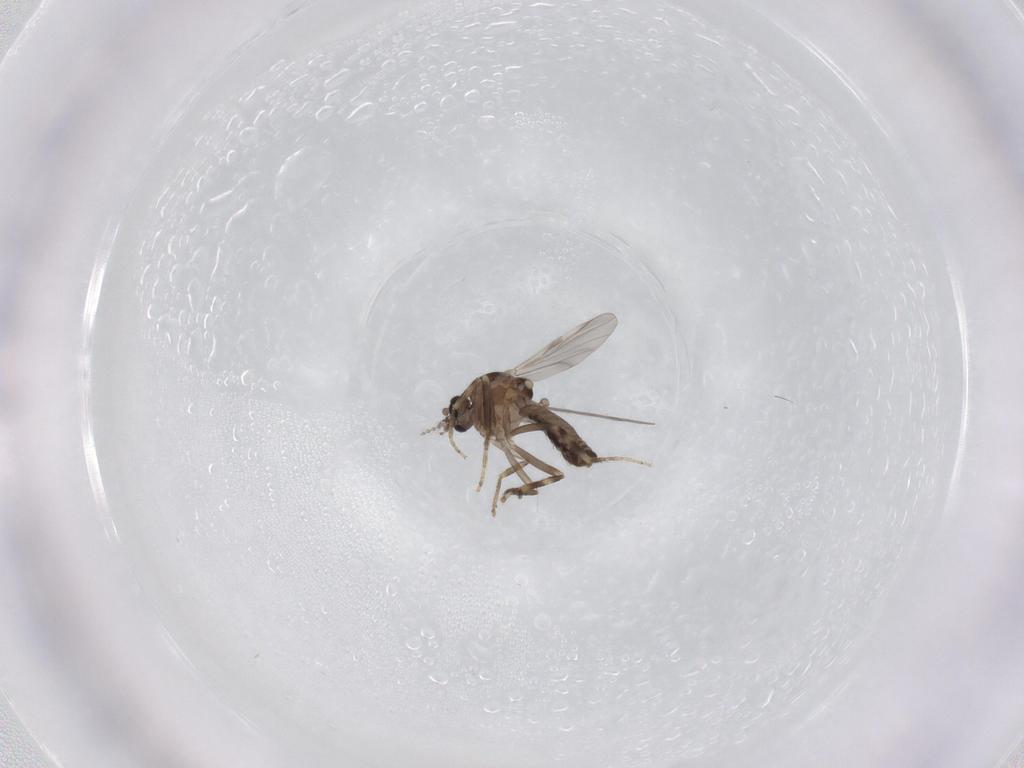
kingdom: Animalia
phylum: Arthropoda
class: Insecta
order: Diptera
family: Ceratopogonidae
